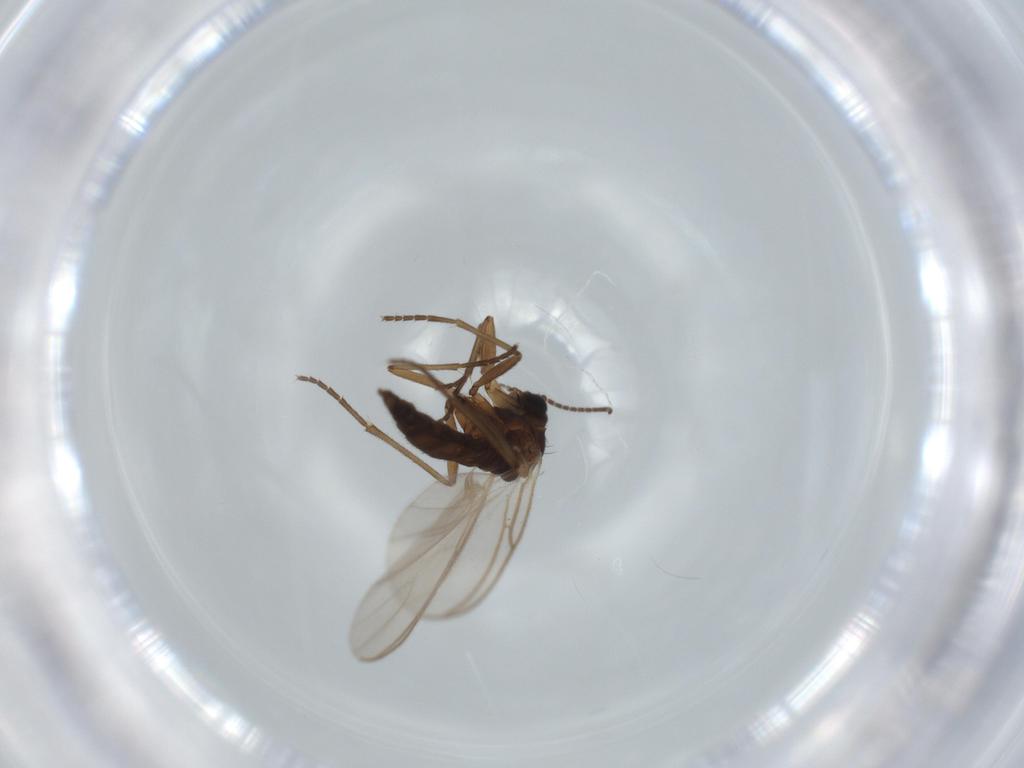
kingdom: Animalia
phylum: Arthropoda
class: Insecta
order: Diptera
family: Sciaridae
